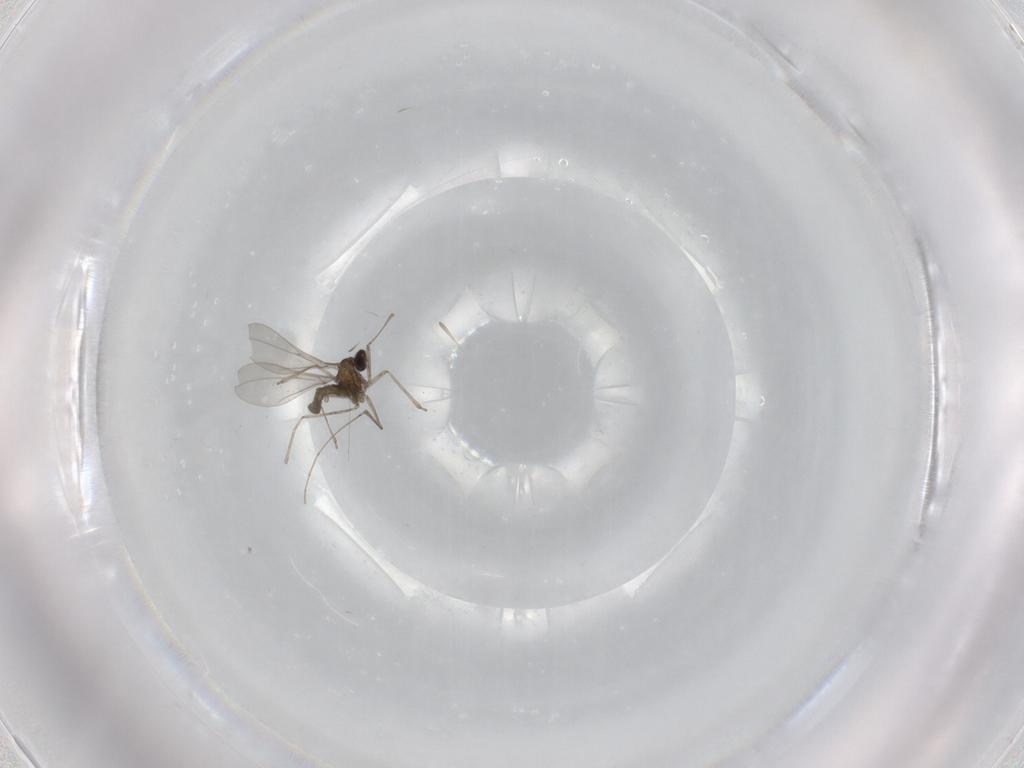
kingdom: Animalia
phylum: Arthropoda
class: Insecta
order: Diptera
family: Cecidomyiidae
